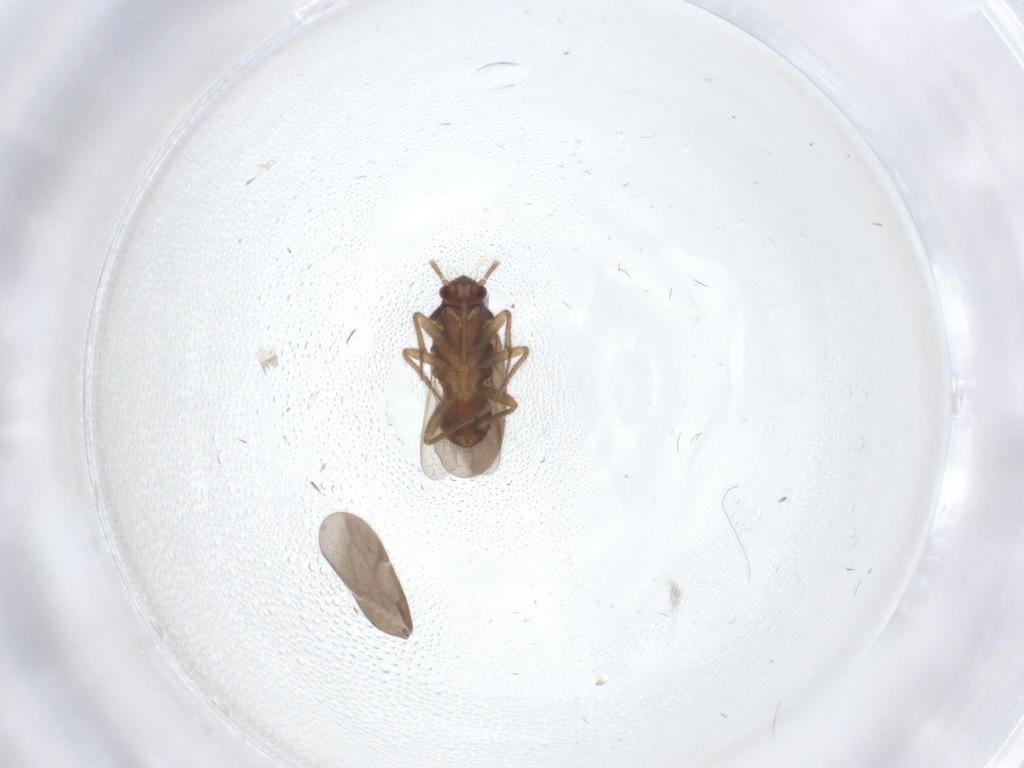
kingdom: Animalia
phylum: Arthropoda
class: Insecta
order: Hemiptera
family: Ceratocombidae
